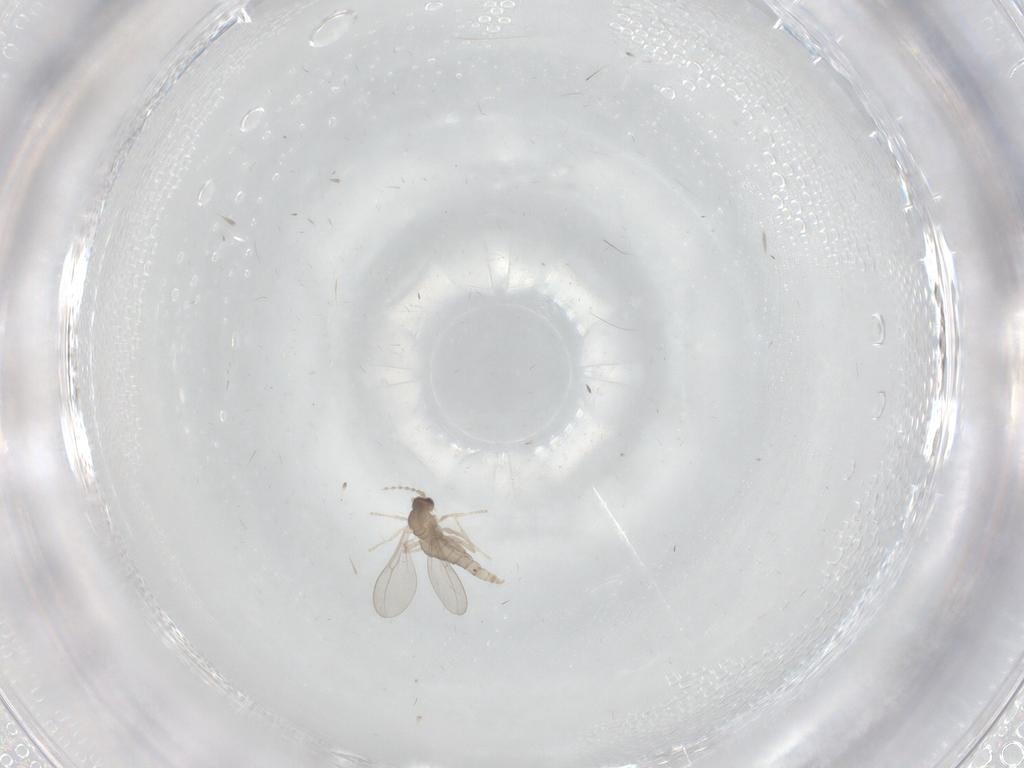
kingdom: Animalia
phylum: Arthropoda
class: Insecta
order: Diptera
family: Cecidomyiidae
